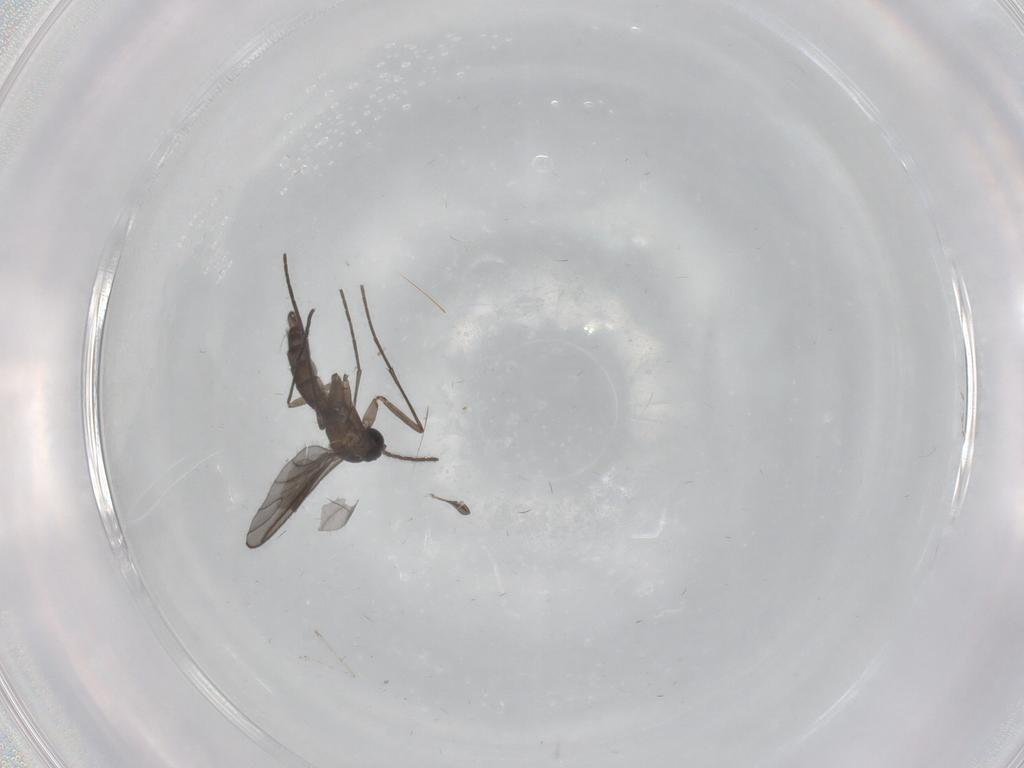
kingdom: Animalia
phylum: Arthropoda
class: Insecta
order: Diptera
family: Sciaridae
